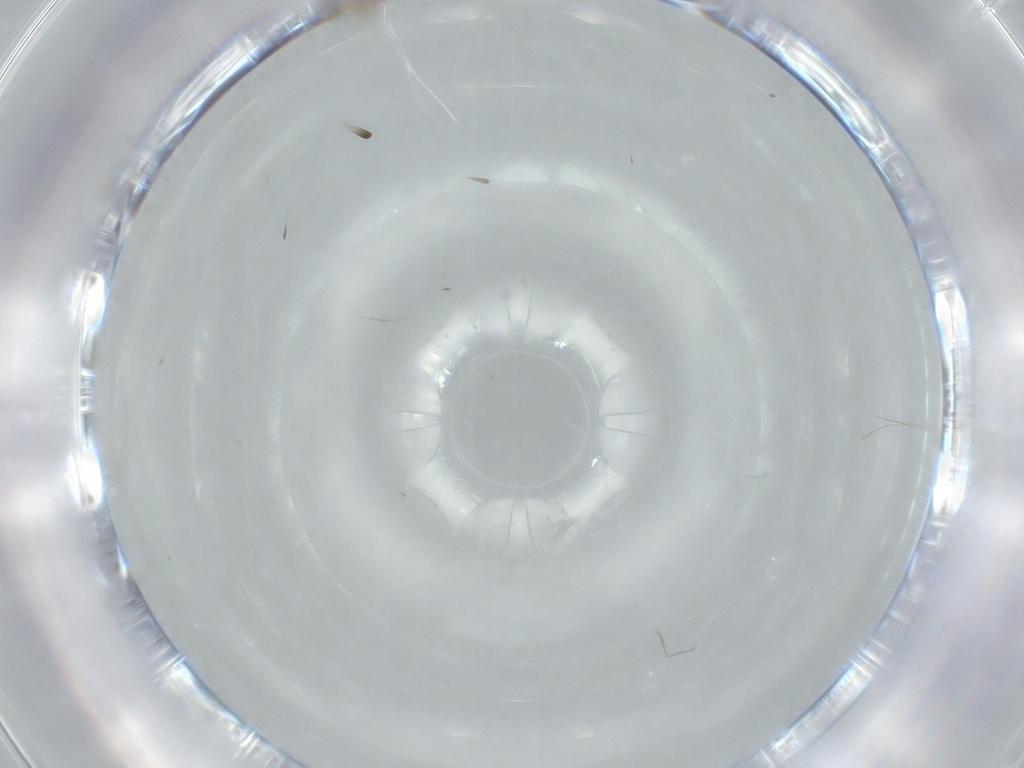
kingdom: Animalia
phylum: Arthropoda
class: Insecta
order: Diptera
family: Cecidomyiidae
